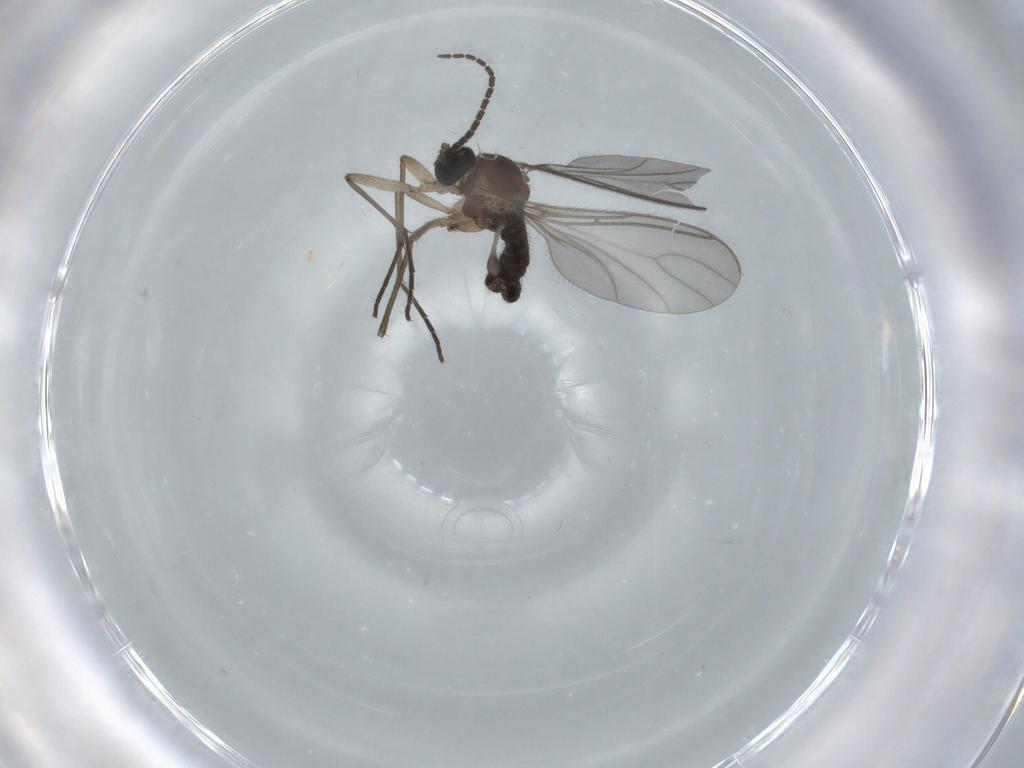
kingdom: Animalia
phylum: Arthropoda
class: Insecta
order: Diptera
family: Sciaridae
